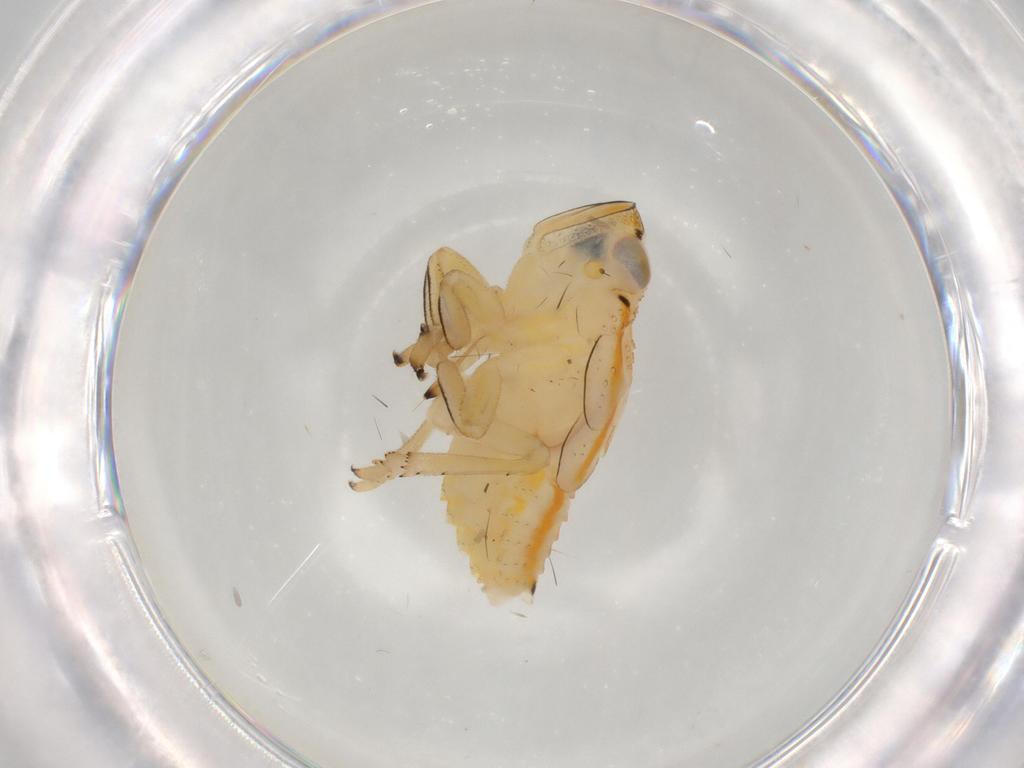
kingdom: Animalia
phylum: Arthropoda
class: Insecta
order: Hemiptera
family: Issidae
